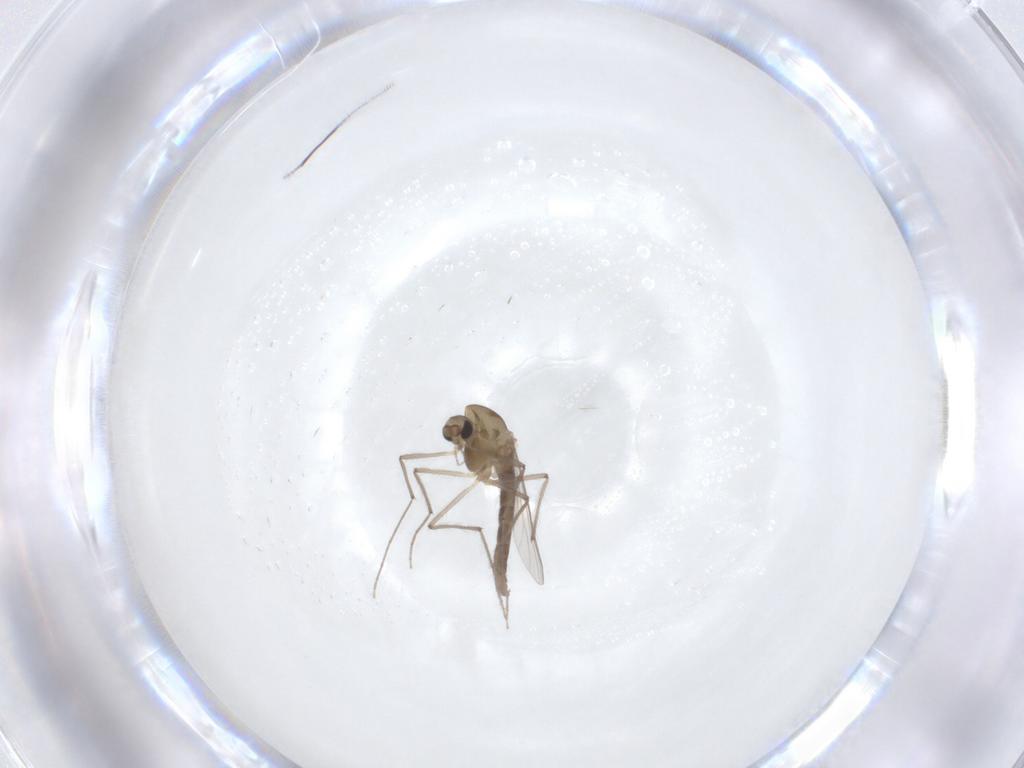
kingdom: Animalia
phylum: Arthropoda
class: Insecta
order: Diptera
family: Chironomidae
